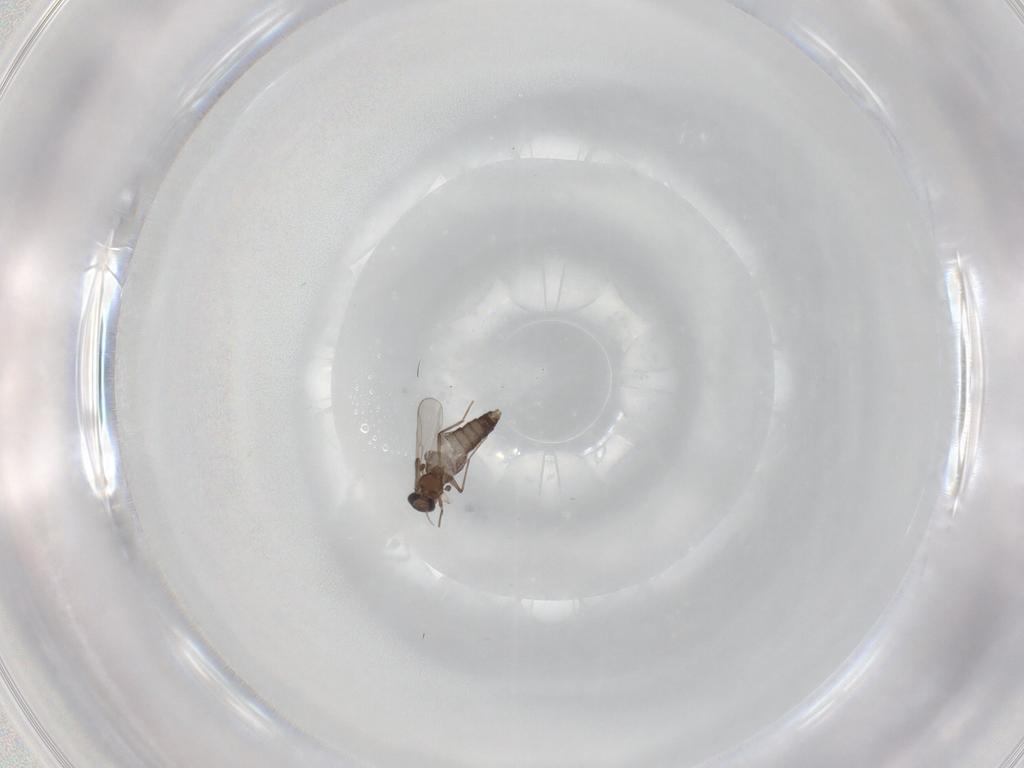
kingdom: Animalia
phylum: Arthropoda
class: Insecta
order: Diptera
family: Chironomidae
